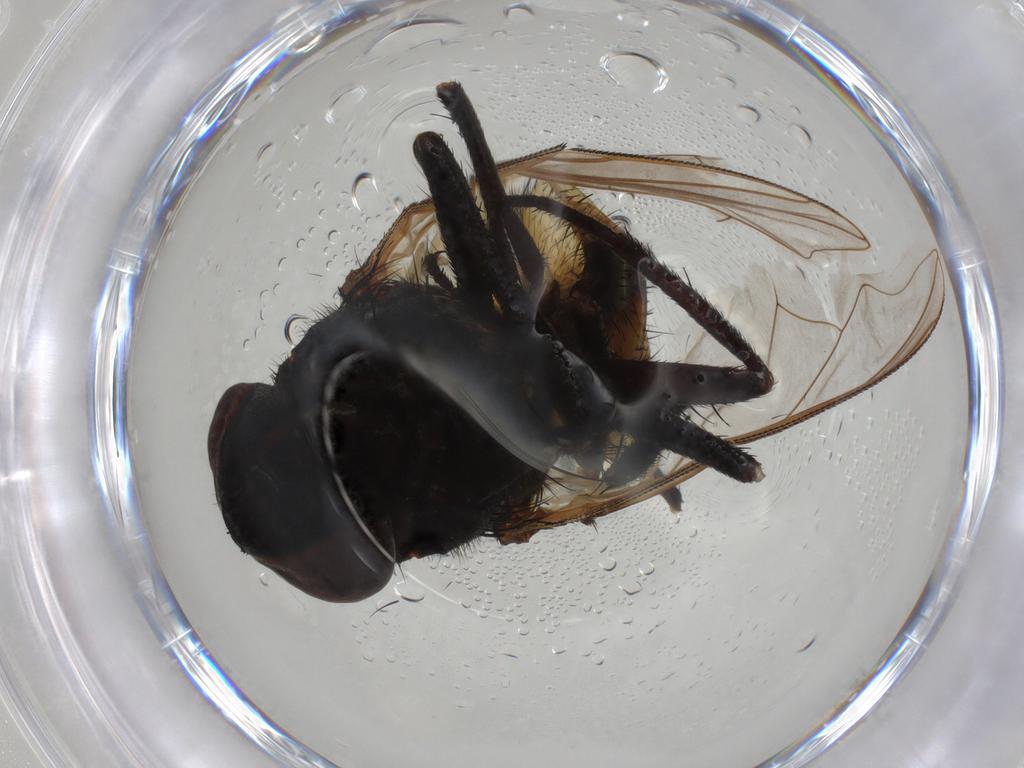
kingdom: Animalia
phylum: Arthropoda
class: Insecta
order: Diptera
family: Muscidae
